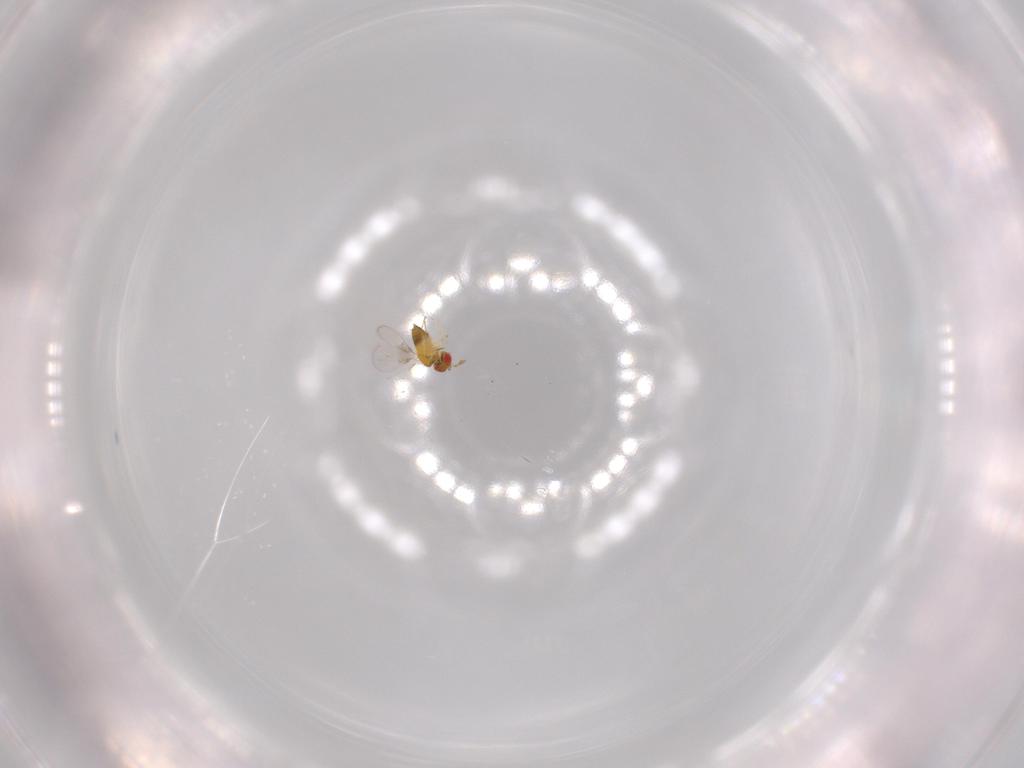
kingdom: Animalia
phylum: Arthropoda
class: Insecta
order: Hymenoptera
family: Trichogrammatidae
